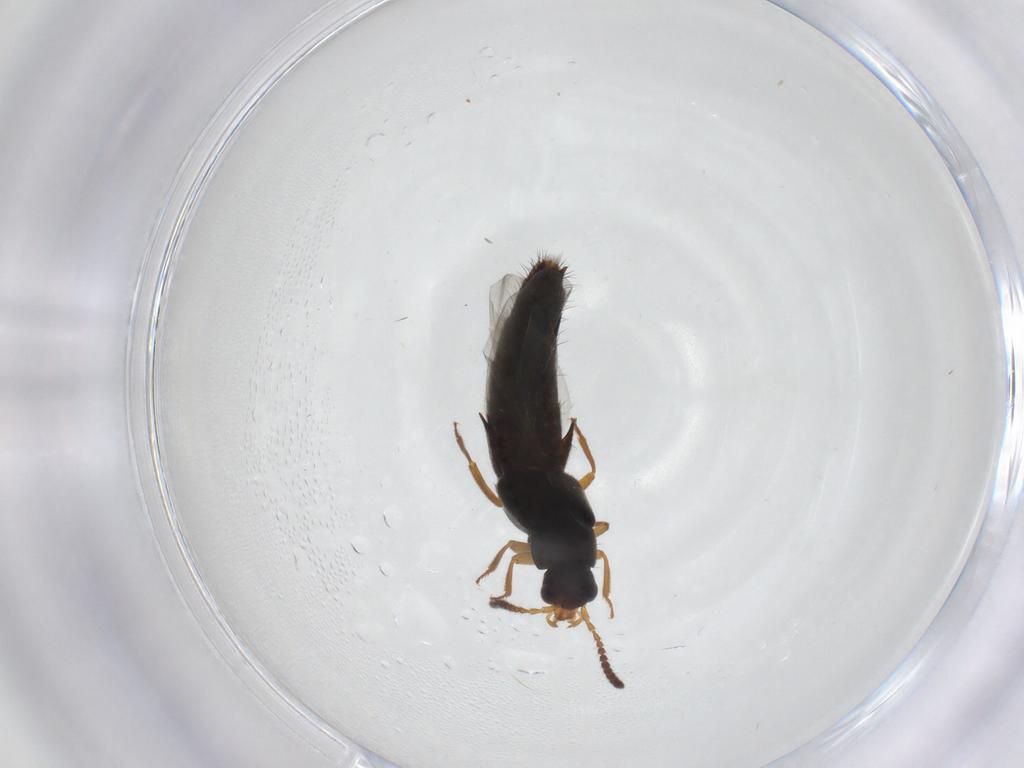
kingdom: Animalia
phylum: Arthropoda
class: Insecta
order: Coleoptera
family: Staphylinidae
